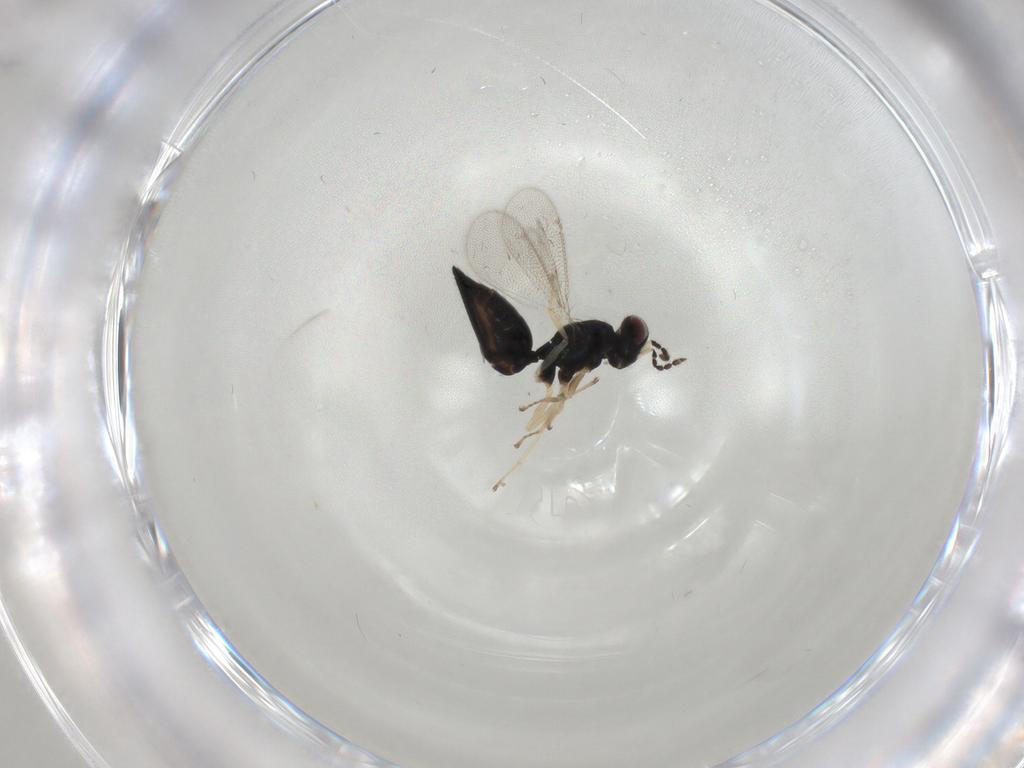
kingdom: Animalia
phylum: Arthropoda
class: Insecta
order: Hymenoptera
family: Eulophidae
